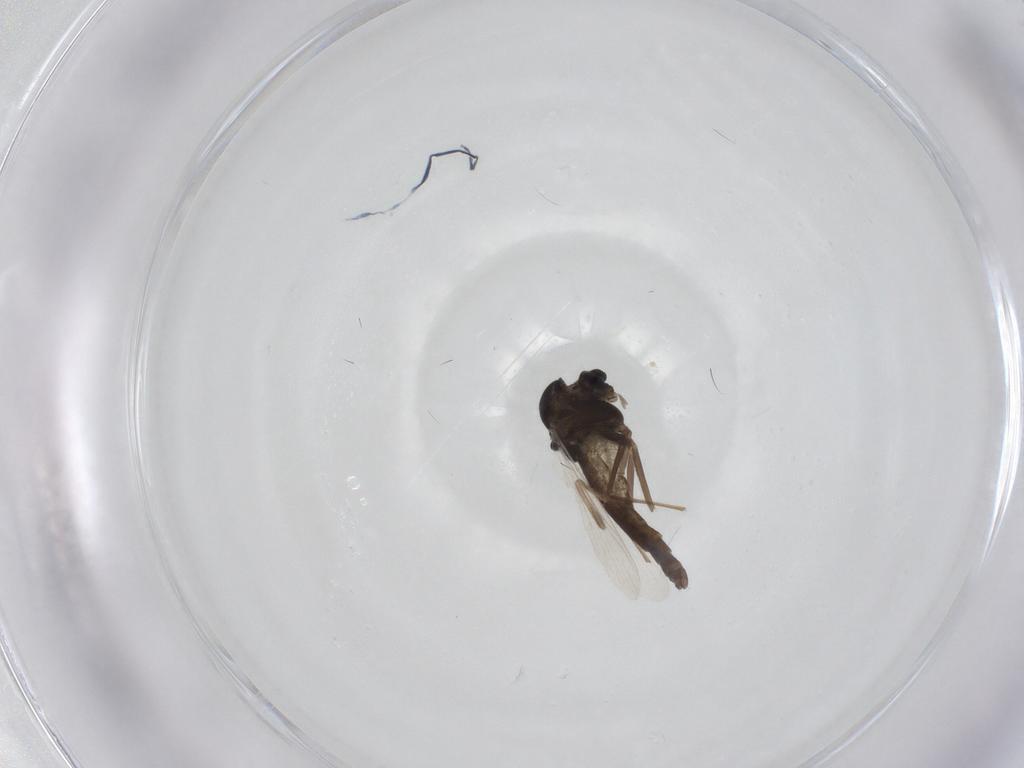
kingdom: Animalia
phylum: Arthropoda
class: Insecta
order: Diptera
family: Chironomidae
